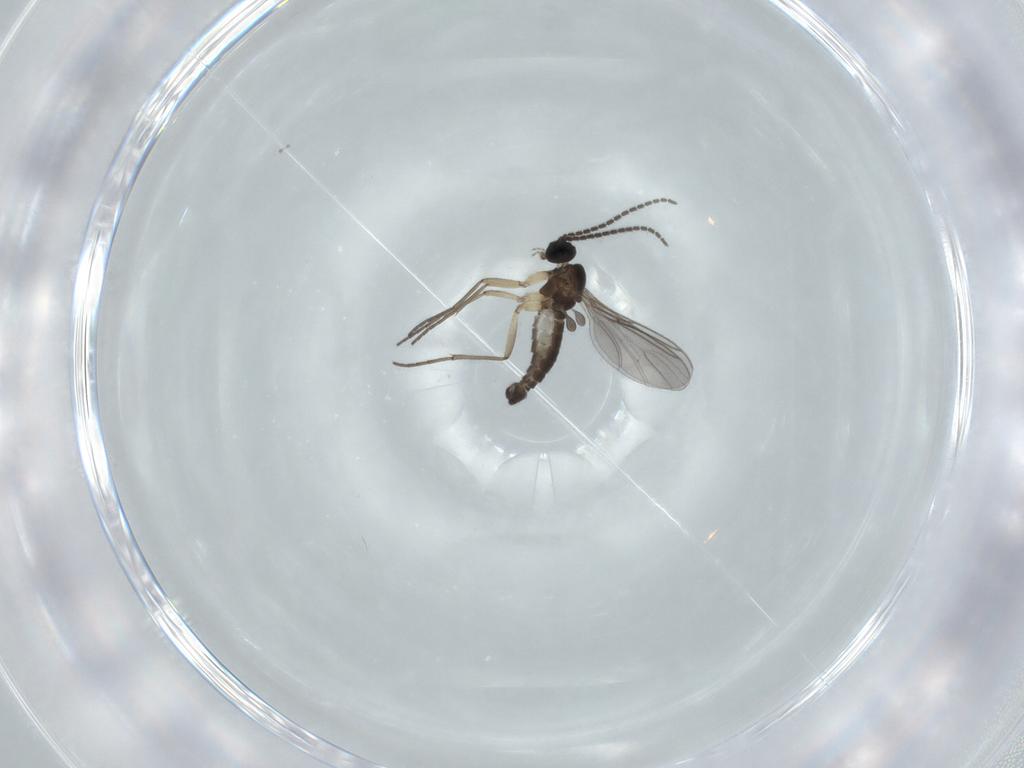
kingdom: Animalia
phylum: Arthropoda
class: Insecta
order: Diptera
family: Sciaridae
